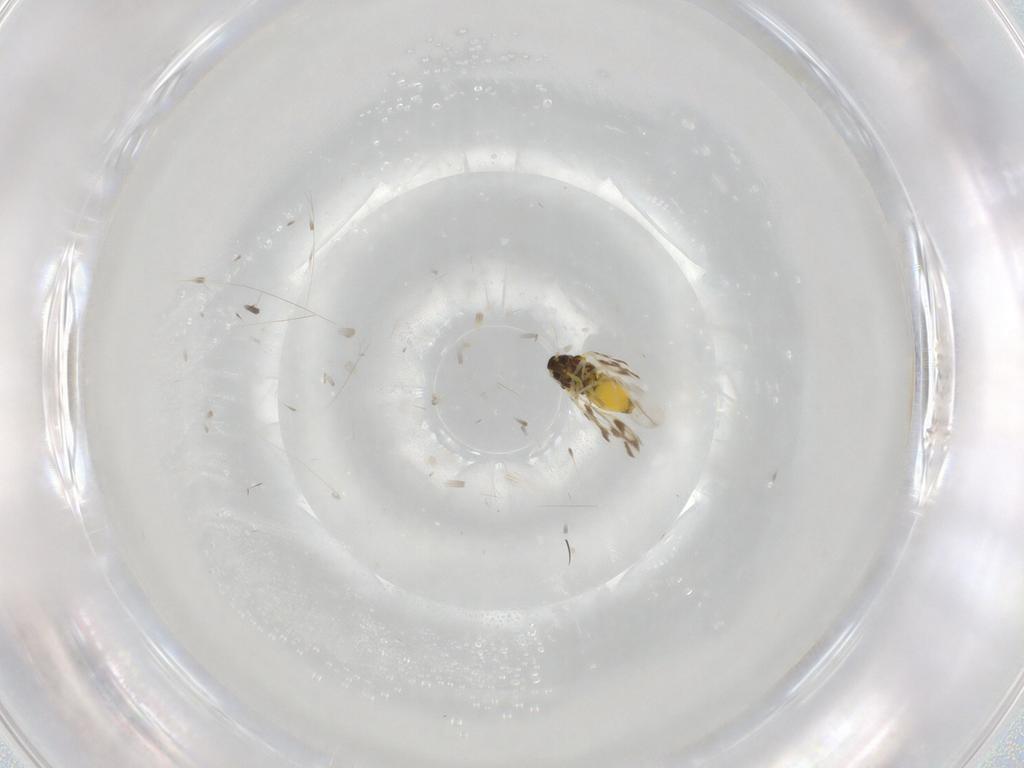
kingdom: Animalia
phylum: Arthropoda
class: Insecta
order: Hemiptera
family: Aleyrodidae
